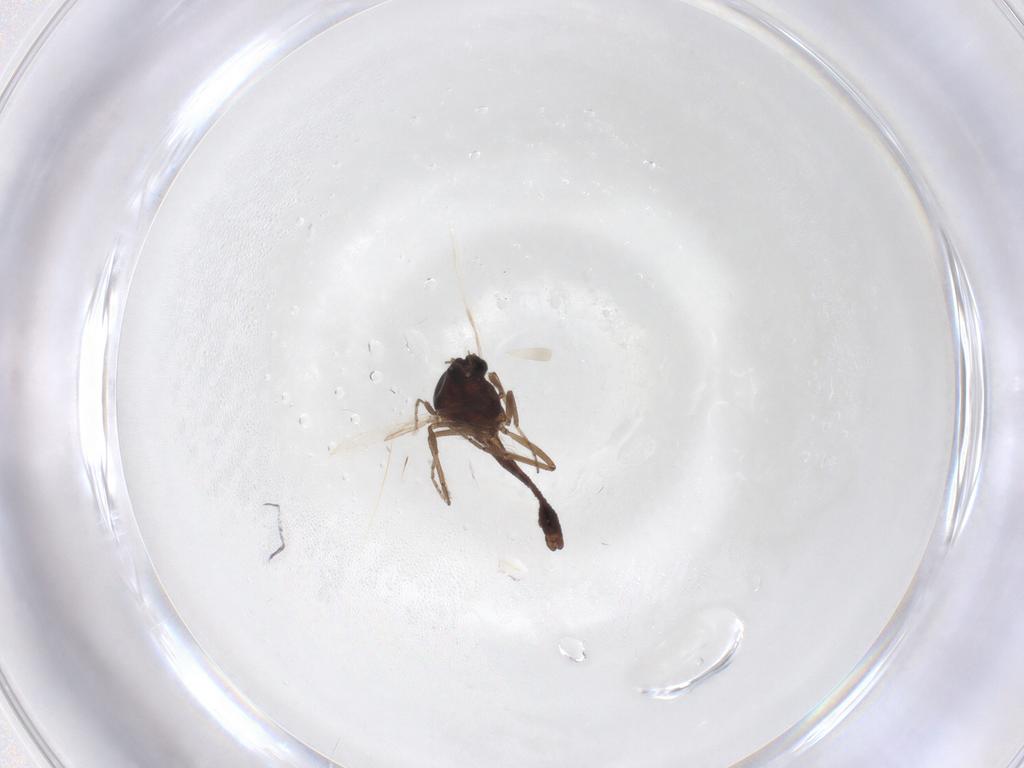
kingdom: Animalia
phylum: Arthropoda
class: Insecta
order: Diptera
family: Ceratopogonidae
